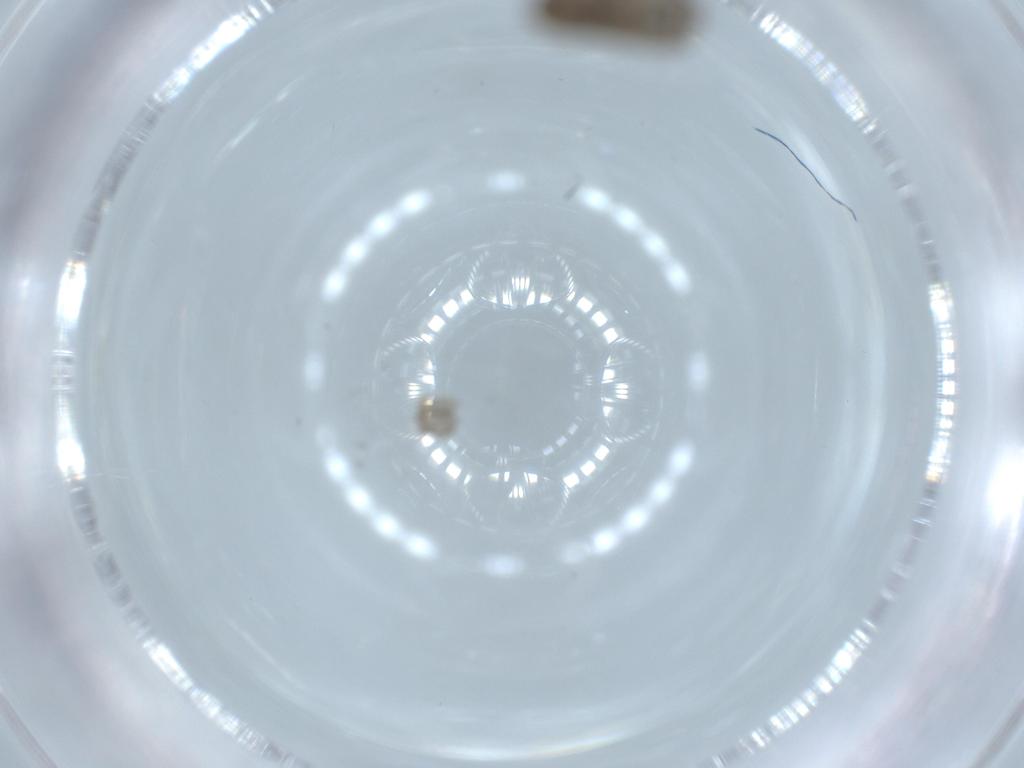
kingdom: Animalia
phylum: Arthropoda
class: Insecta
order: Diptera
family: Psychodidae
